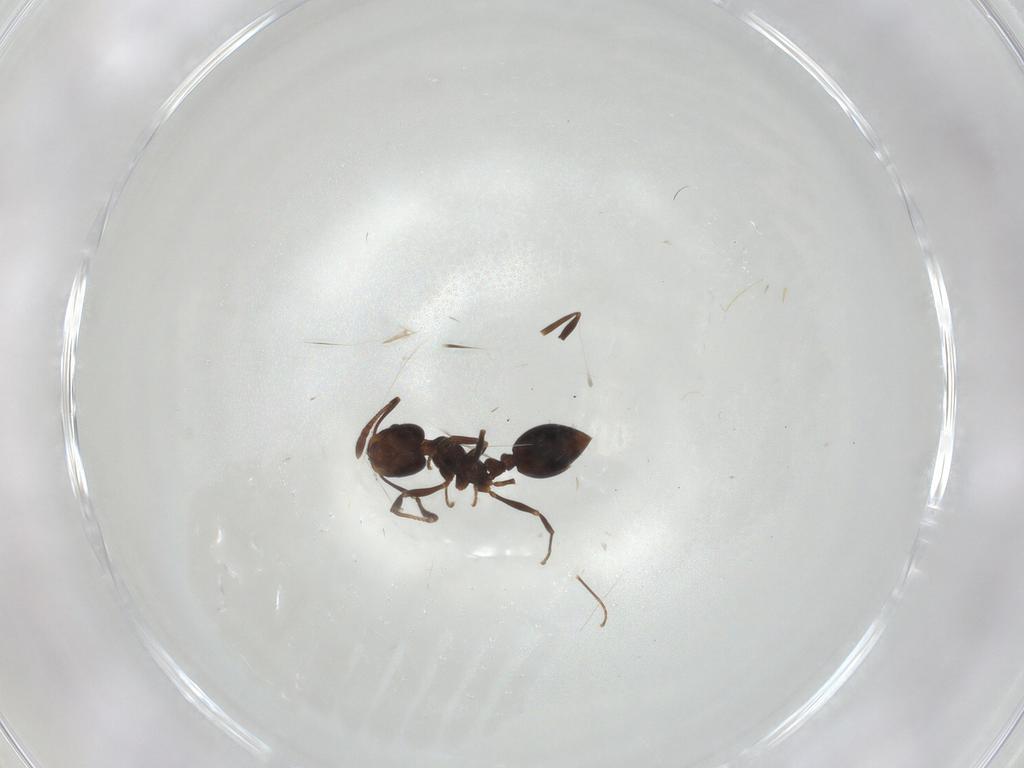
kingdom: Animalia
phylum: Arthropoda
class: Insecta
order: Hymenoptera
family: Formicidae
